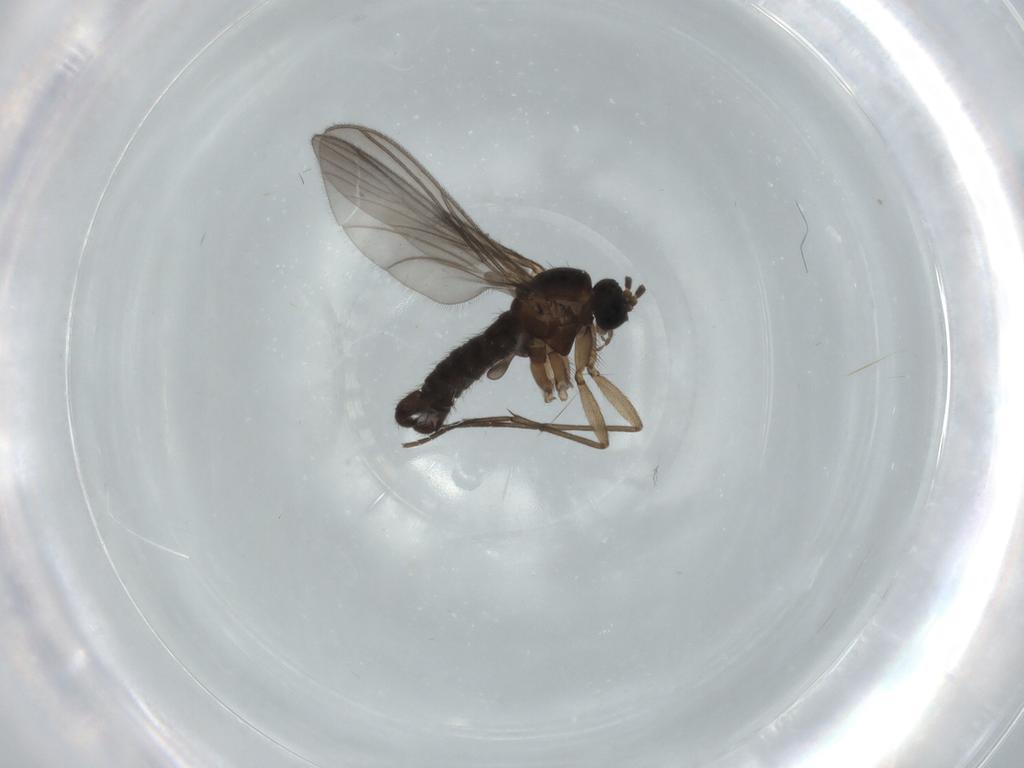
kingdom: Animalia
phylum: Arthropoda
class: Insecta
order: Diptera
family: Sciaridae
